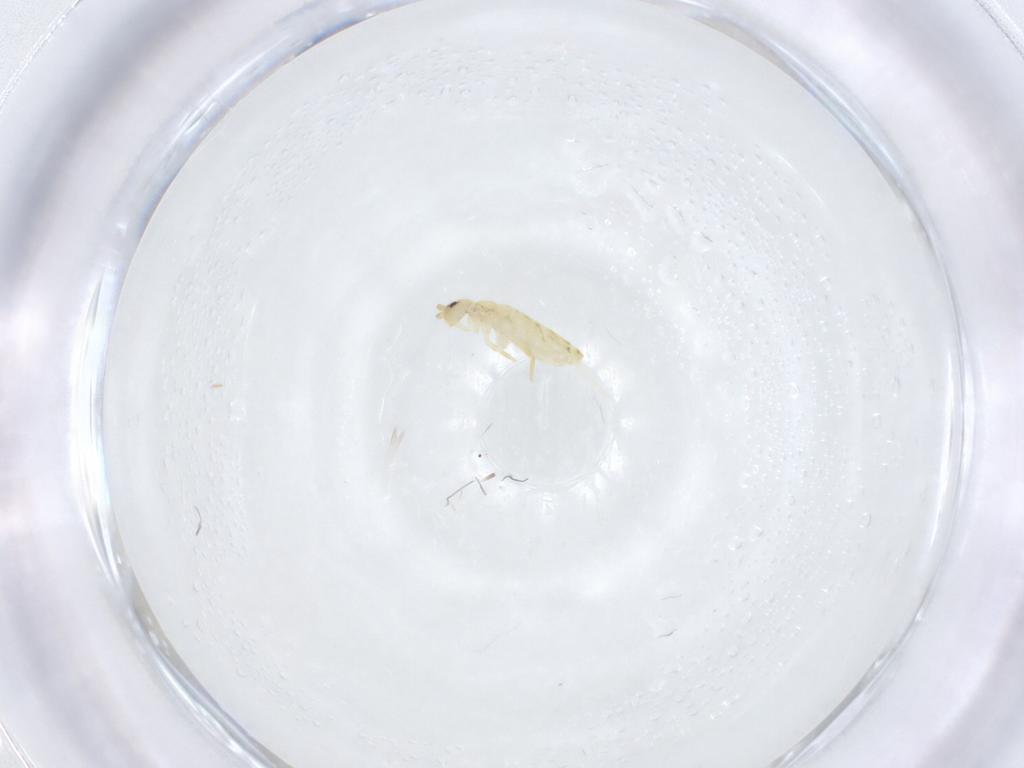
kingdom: Animalia
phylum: Arthropoda
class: Collembola
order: Entomobryomorpha
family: Entomobryidae
